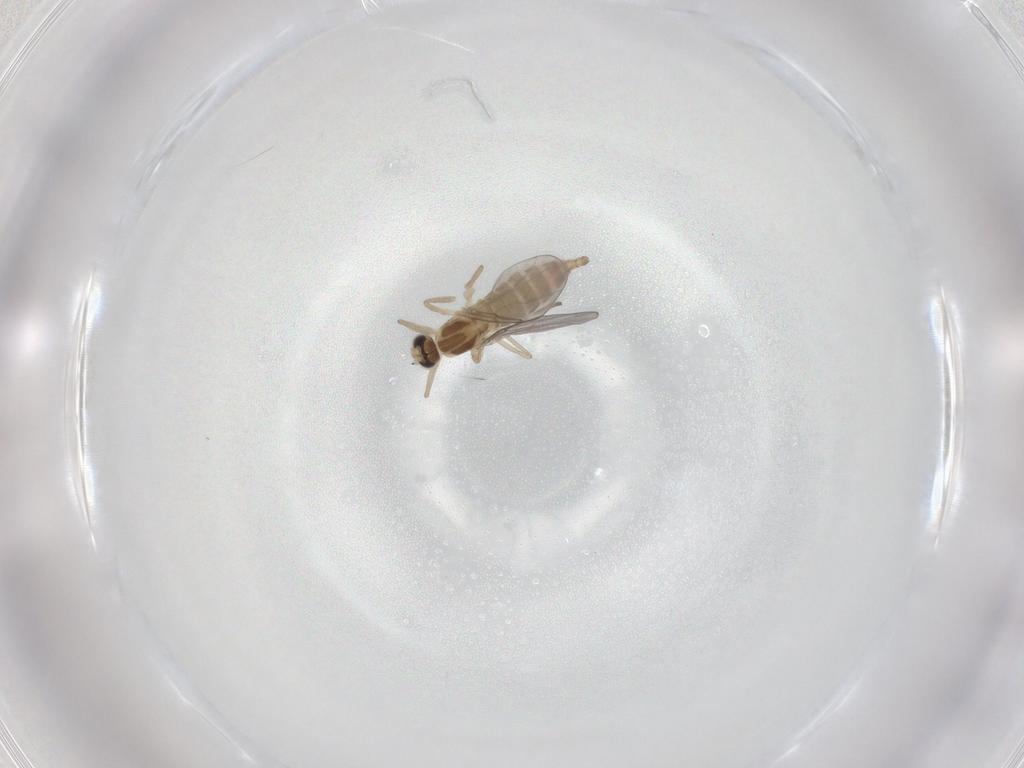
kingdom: Animalia
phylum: Arthropoda
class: Insecta
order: Diptera
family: Cecidomyiidae
